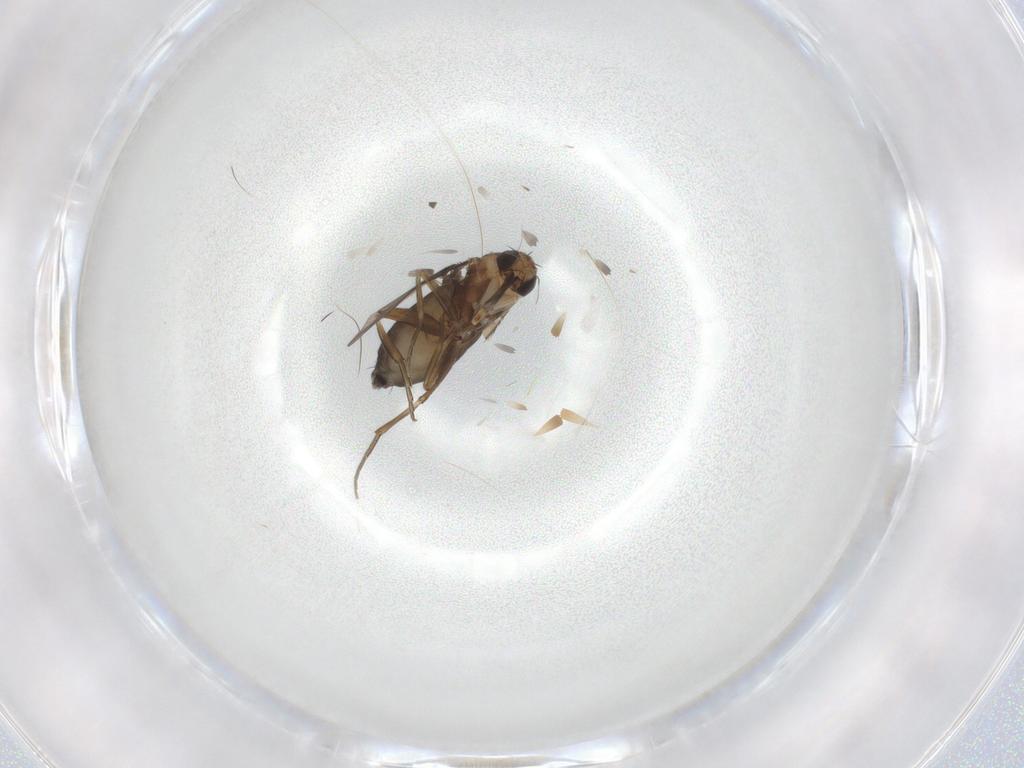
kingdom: Animalia
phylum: Arthropoda
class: Insecta
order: Diptera
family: Phoridae
